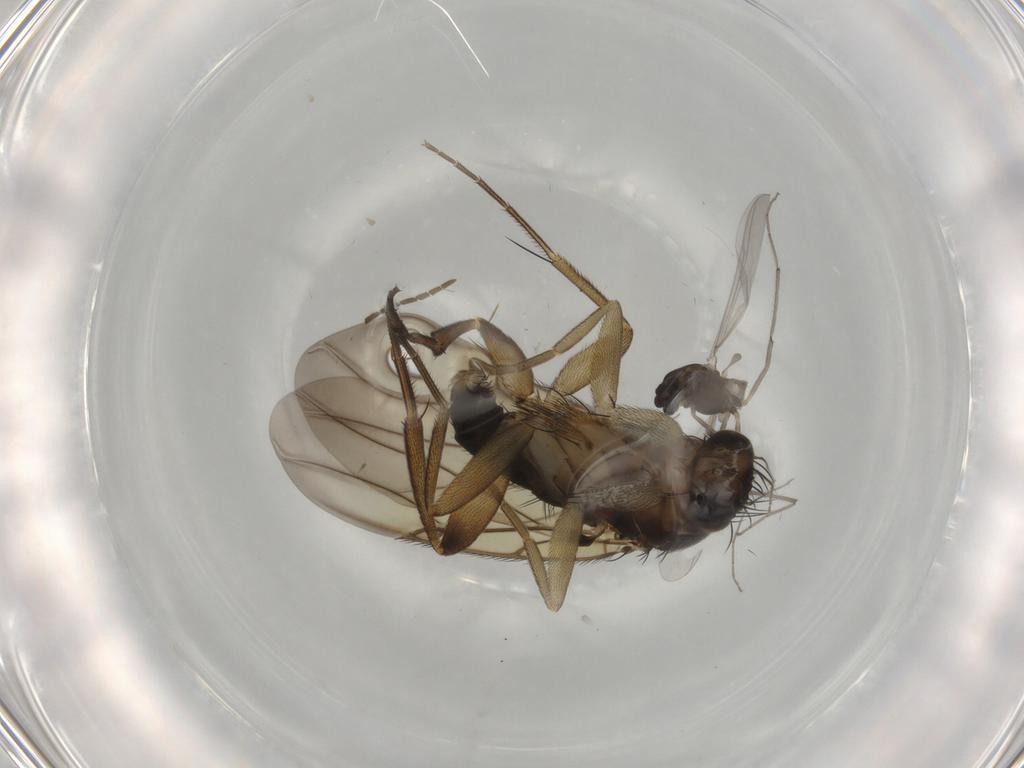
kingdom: Animalia
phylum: Arthropoda
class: Insecta
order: Diptera
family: Phoridae
